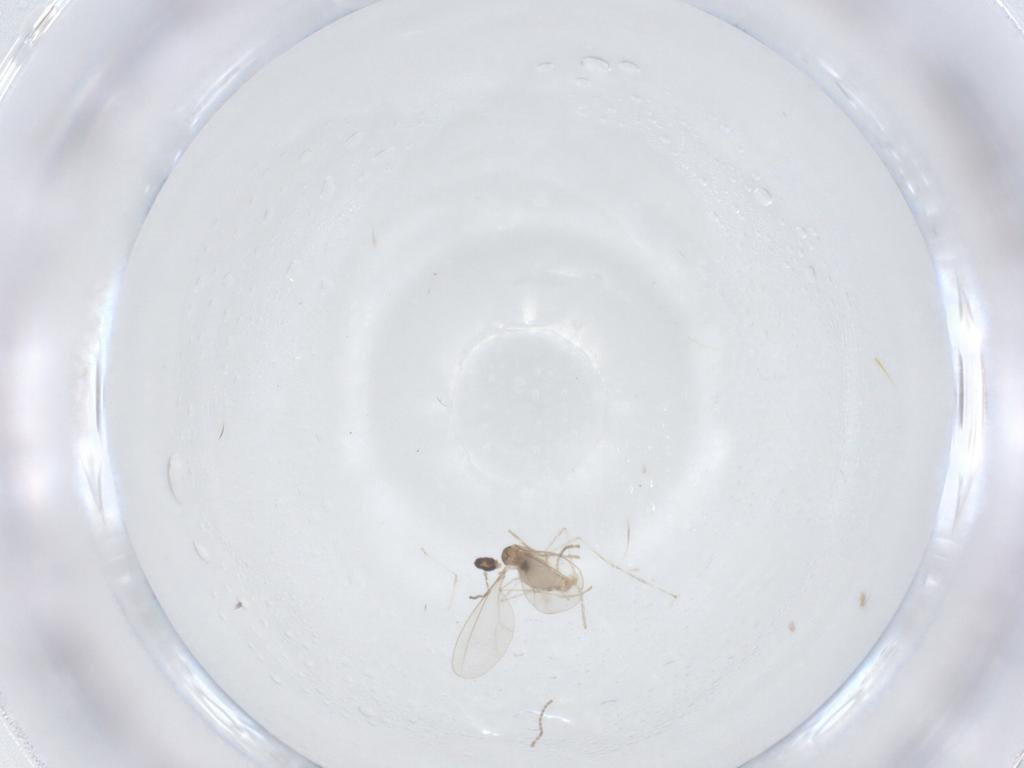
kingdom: Animalia
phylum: Arthropoda
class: Insecta
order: Diptera
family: Cecidomyiidae
